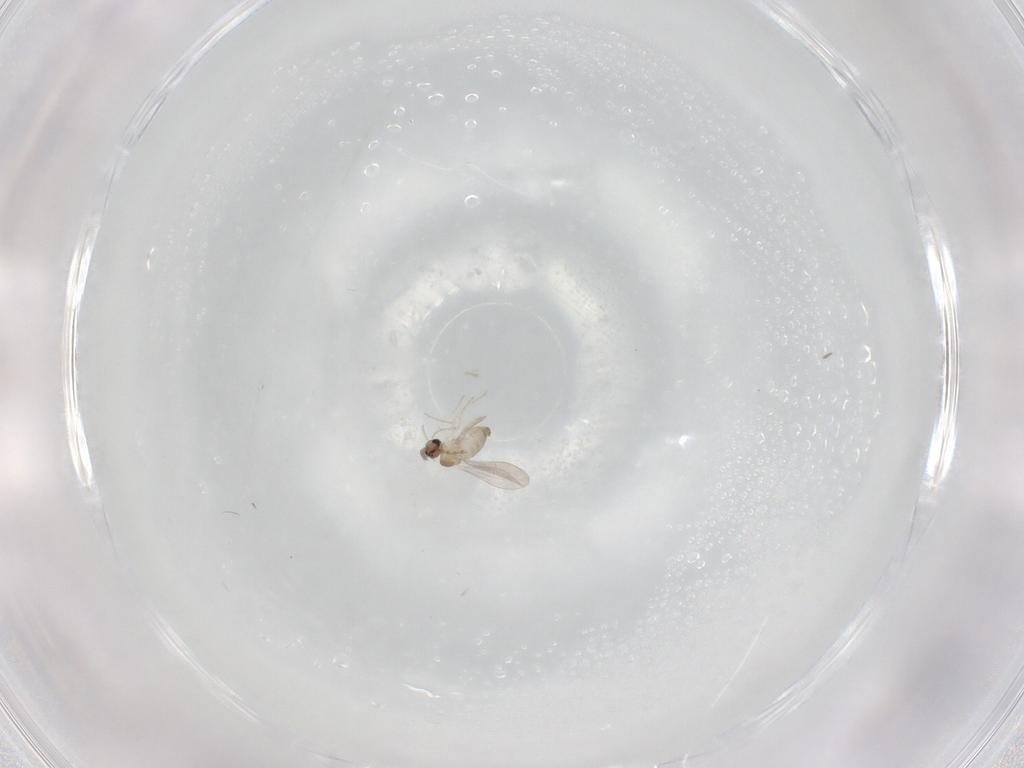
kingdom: Animalia
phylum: Arthropoda
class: Insecta
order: Diptera
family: Cecidomyiidae
